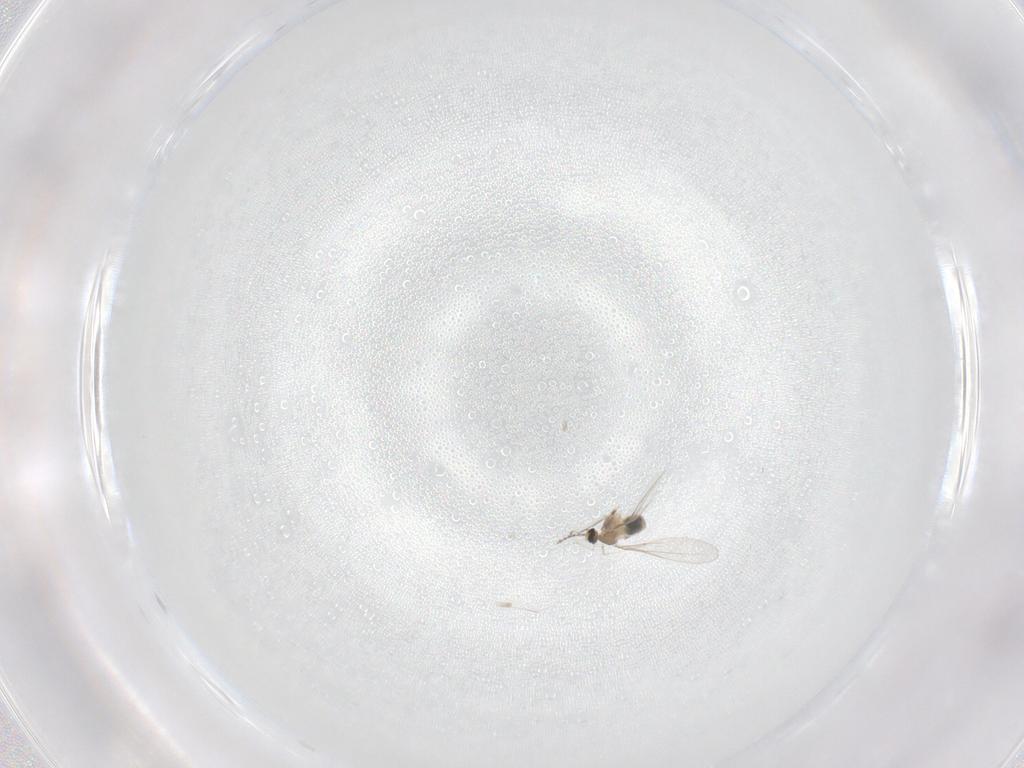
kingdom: Animalia
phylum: Arthropoda
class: Insecta
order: Diptera
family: Cecidomyiidae
